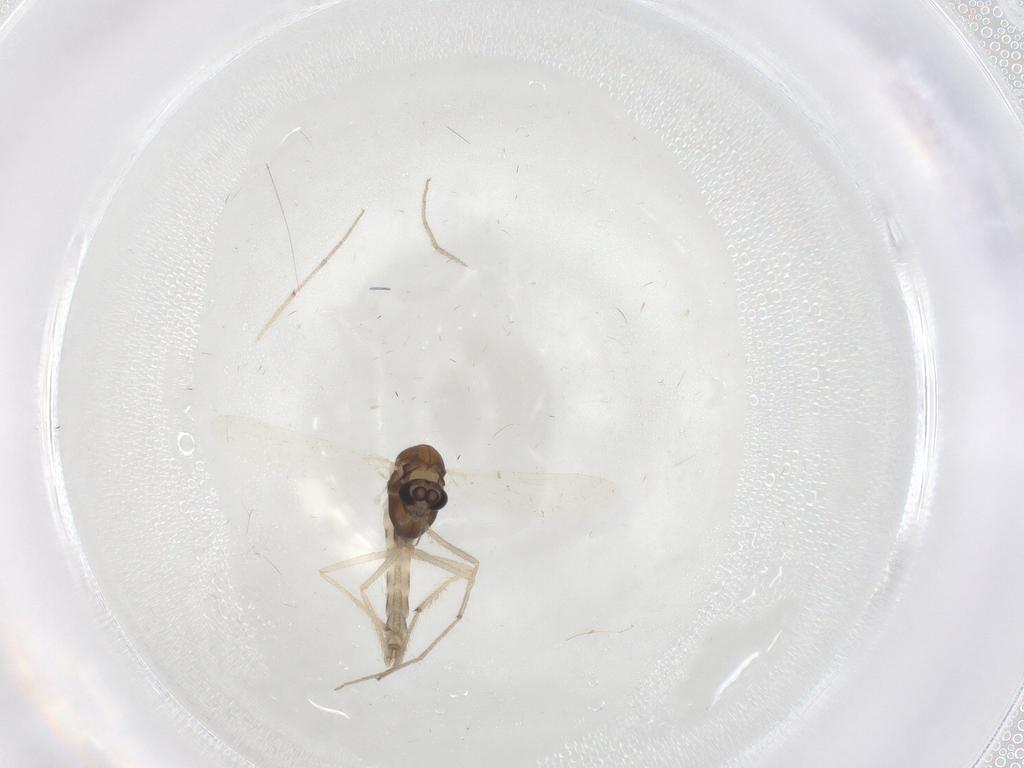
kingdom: Animalia
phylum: Arthropoda
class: Insecta
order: Diptera
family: Chironomidae
